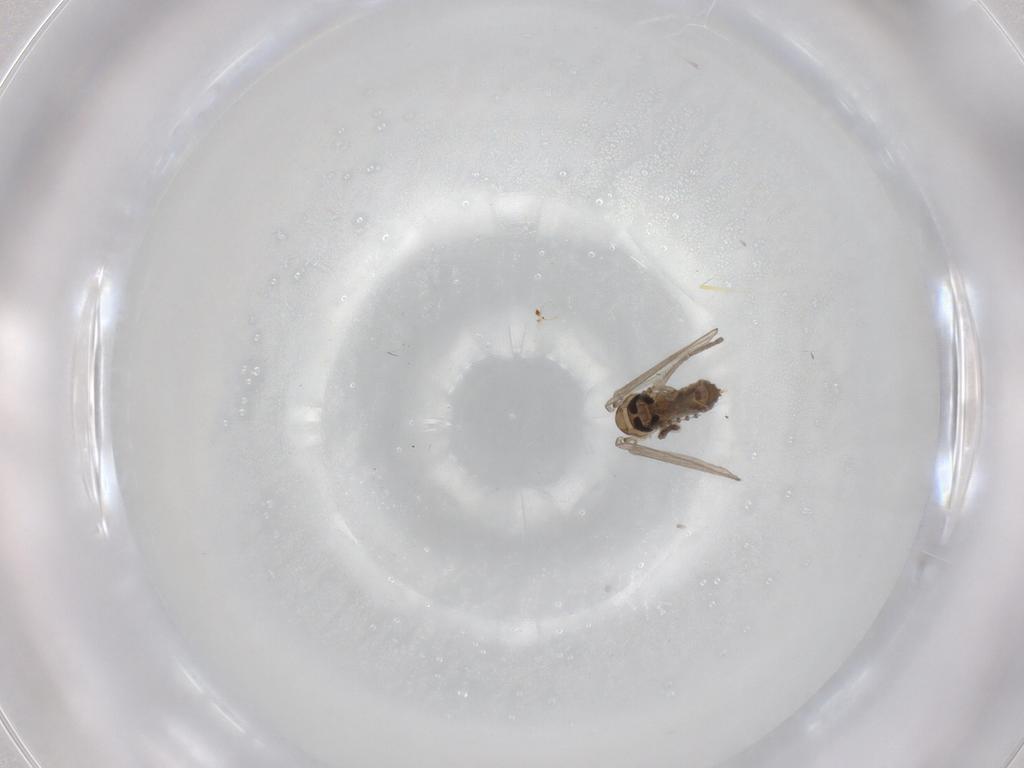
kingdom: Animalia
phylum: Arthropoda
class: Insecta
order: Diptera
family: Psychodidae
